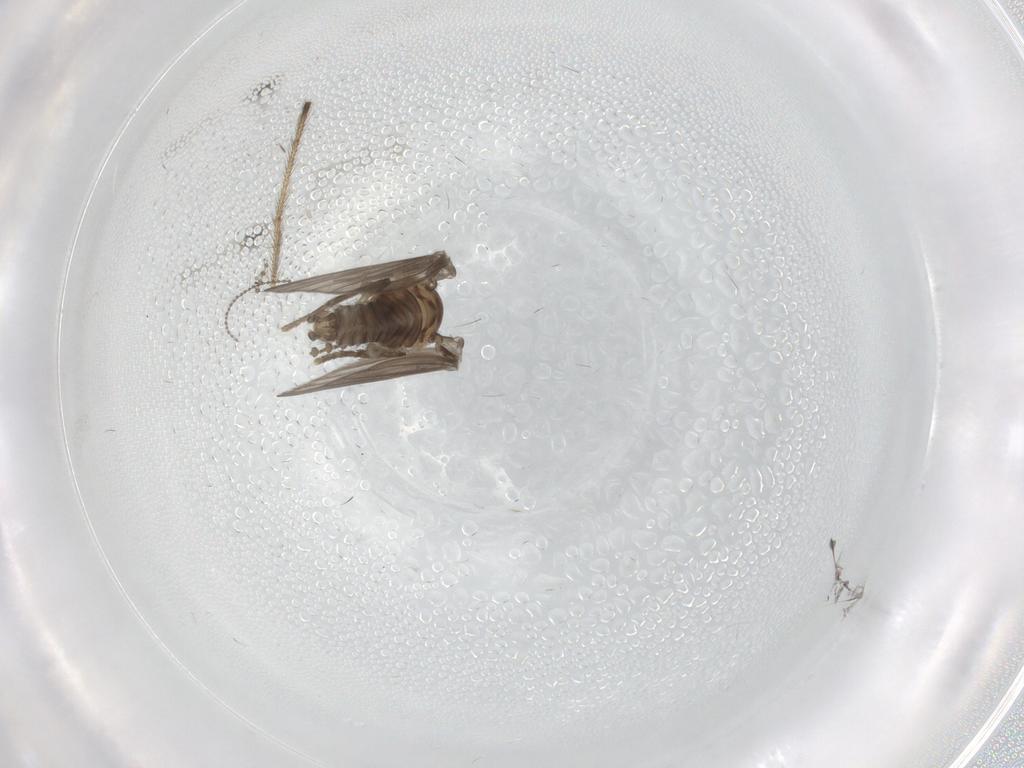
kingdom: Animalia
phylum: Arthropoda
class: Insecta
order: Diptera
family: Psychodidae
